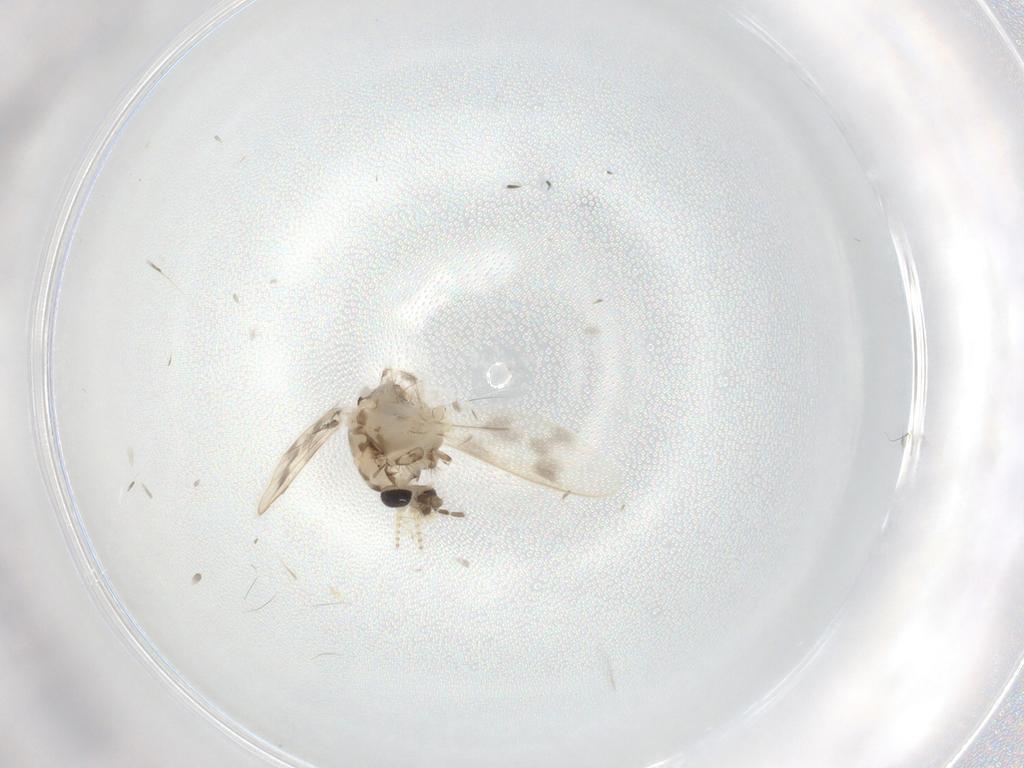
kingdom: Animalia
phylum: Arthropoda
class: Insecta
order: Diptera
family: Corethrellidae
